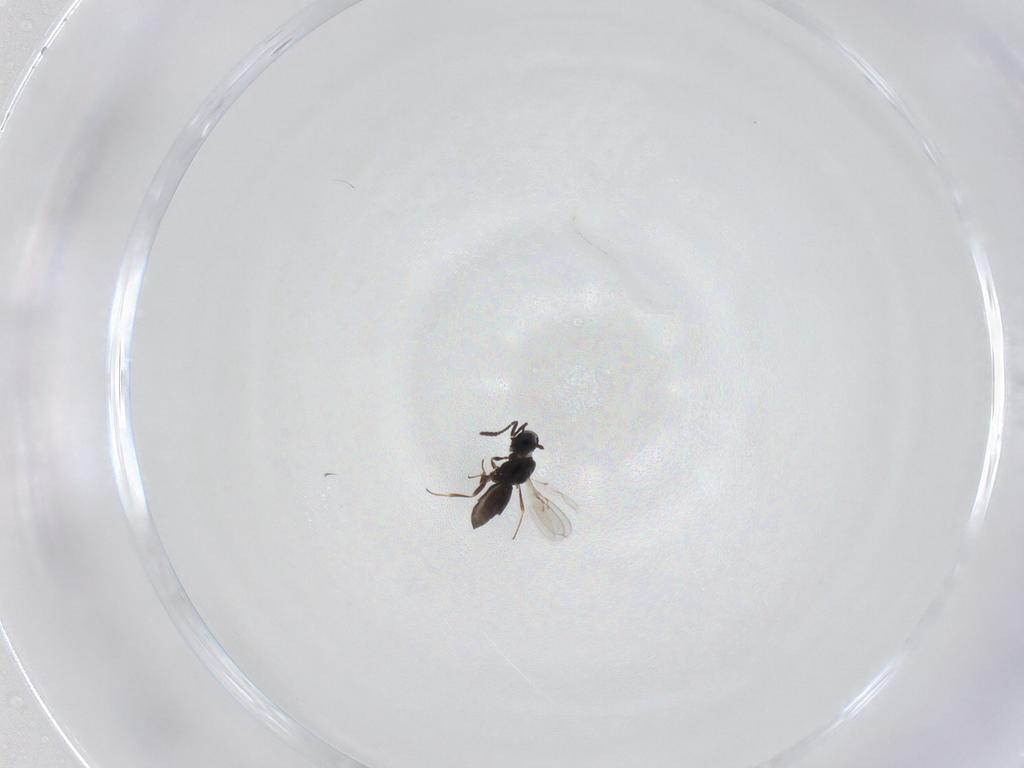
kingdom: Animalia
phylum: Arthropoda
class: Insecta
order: Hymenoptera
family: Scelionidae
